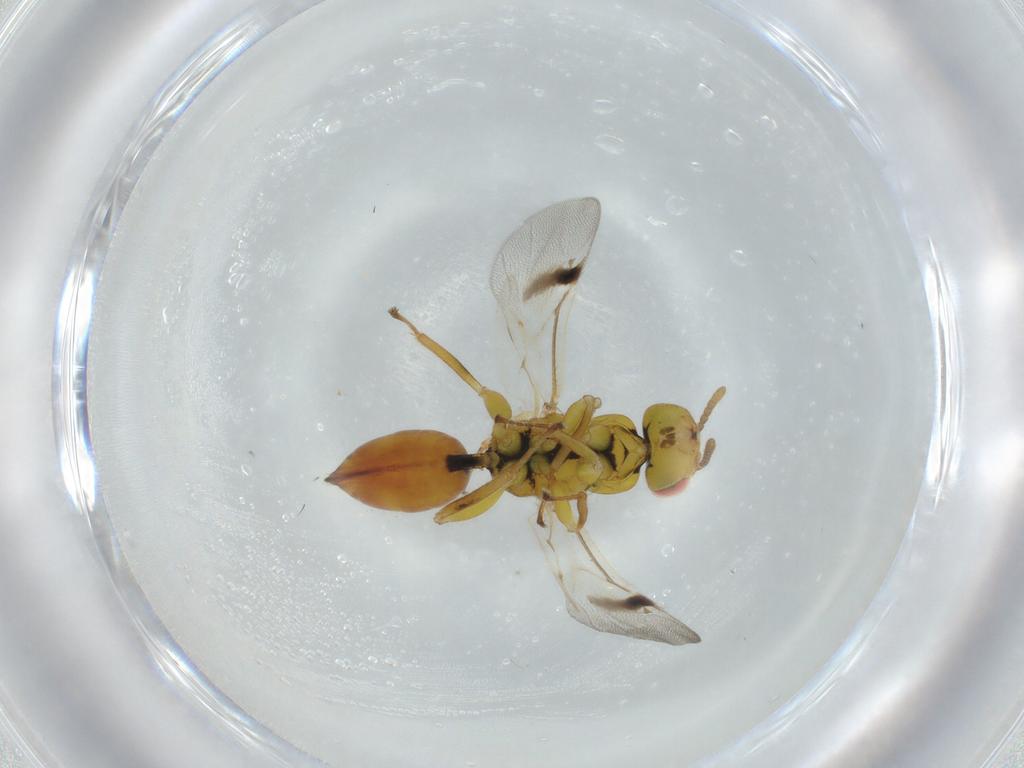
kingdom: Animalia
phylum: Arthropoda
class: Insecta
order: Hymenoptera
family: Eurytomidae
